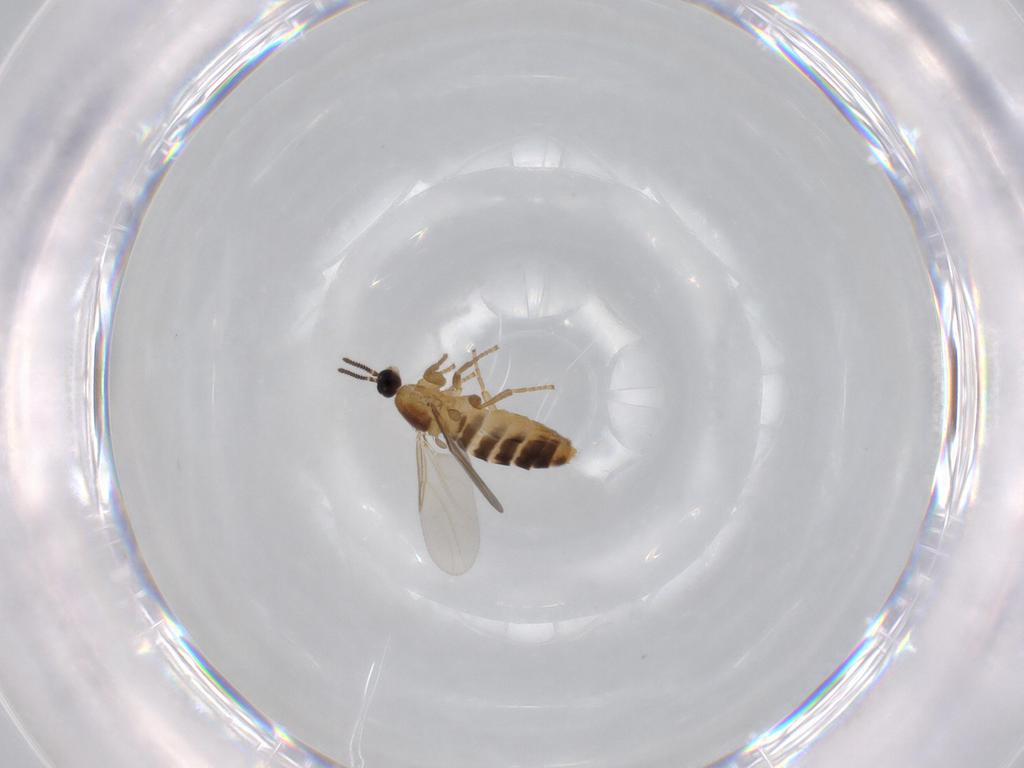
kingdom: Animalia
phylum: Arthropoda
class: Insecta
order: Diptera
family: Scatopsidae
